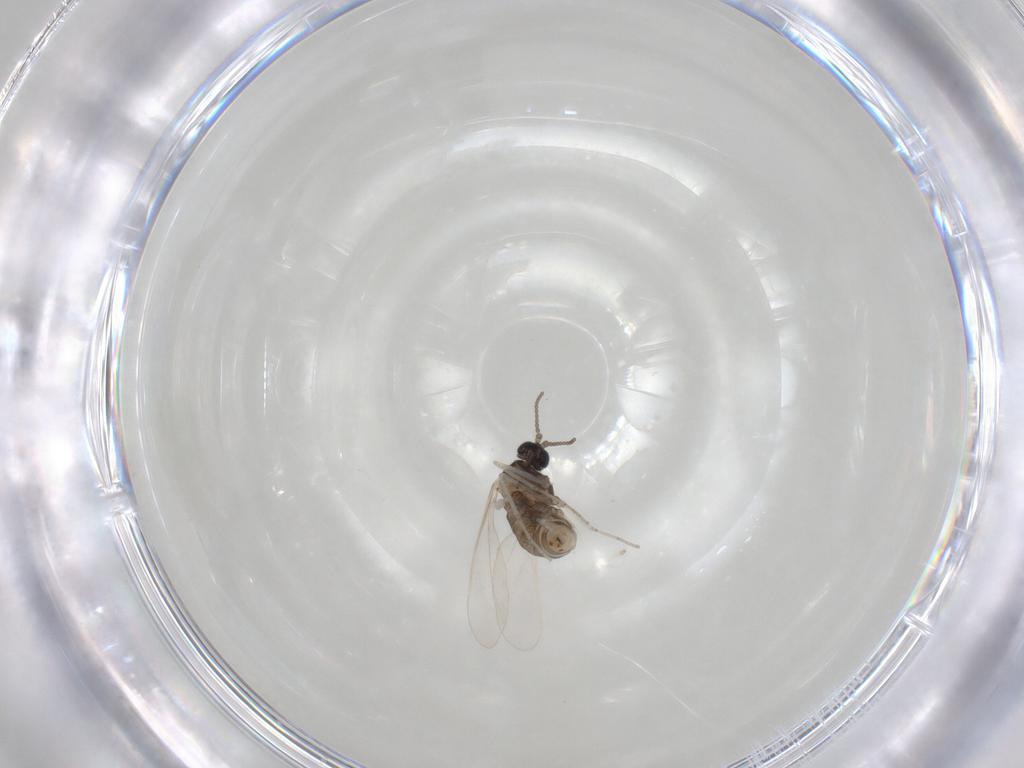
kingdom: Animalia
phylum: Arthropoda
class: Insecta
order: Diptera
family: Cecidomyiidae
